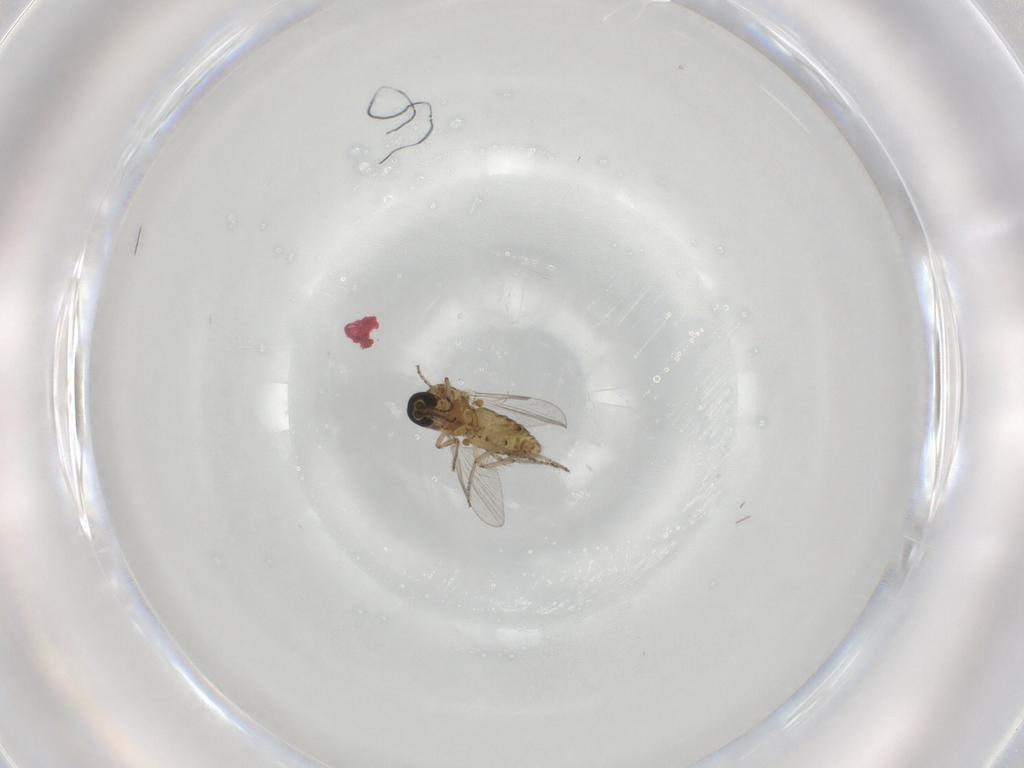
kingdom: Animalia
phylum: Arthropoda
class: Insecta
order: Diptera
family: Ceratopogonidae
